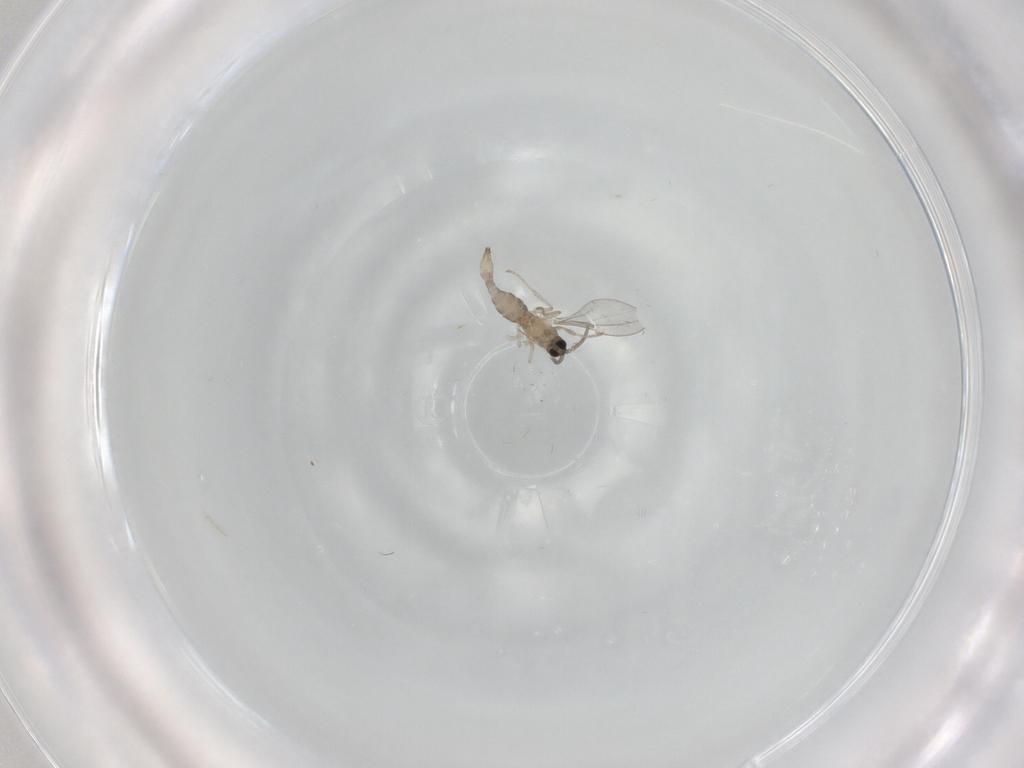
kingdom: Animalia
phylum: Arthropoda
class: Insecta
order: Diptera
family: Cecidomyiidae
